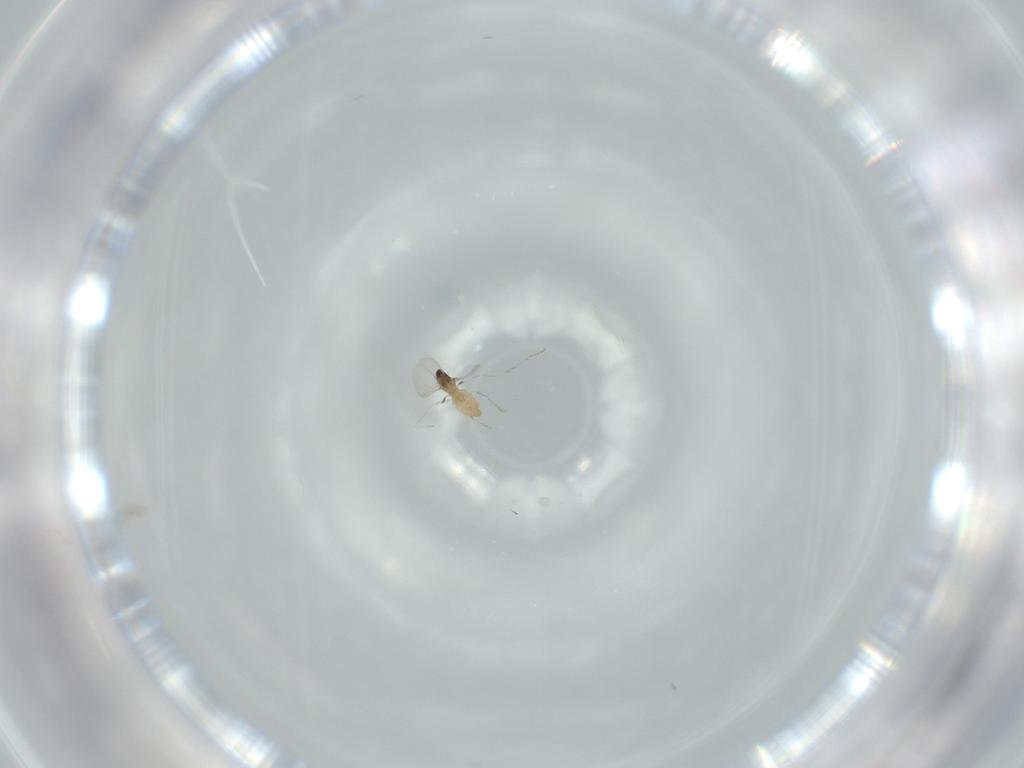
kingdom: Animalia
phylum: Arthropoda
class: Insecta
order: Diptera
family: Cecidomyiidae
